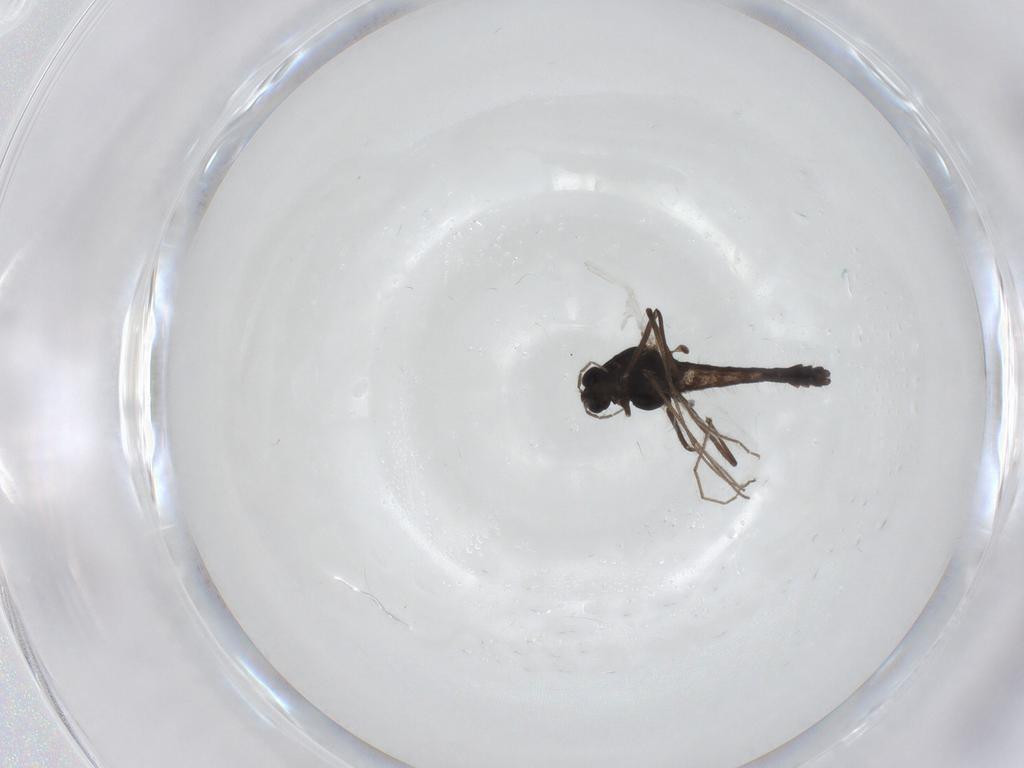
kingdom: Animalia
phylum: Arthropoda
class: Insecta
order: Diptera
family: Chironomidae
